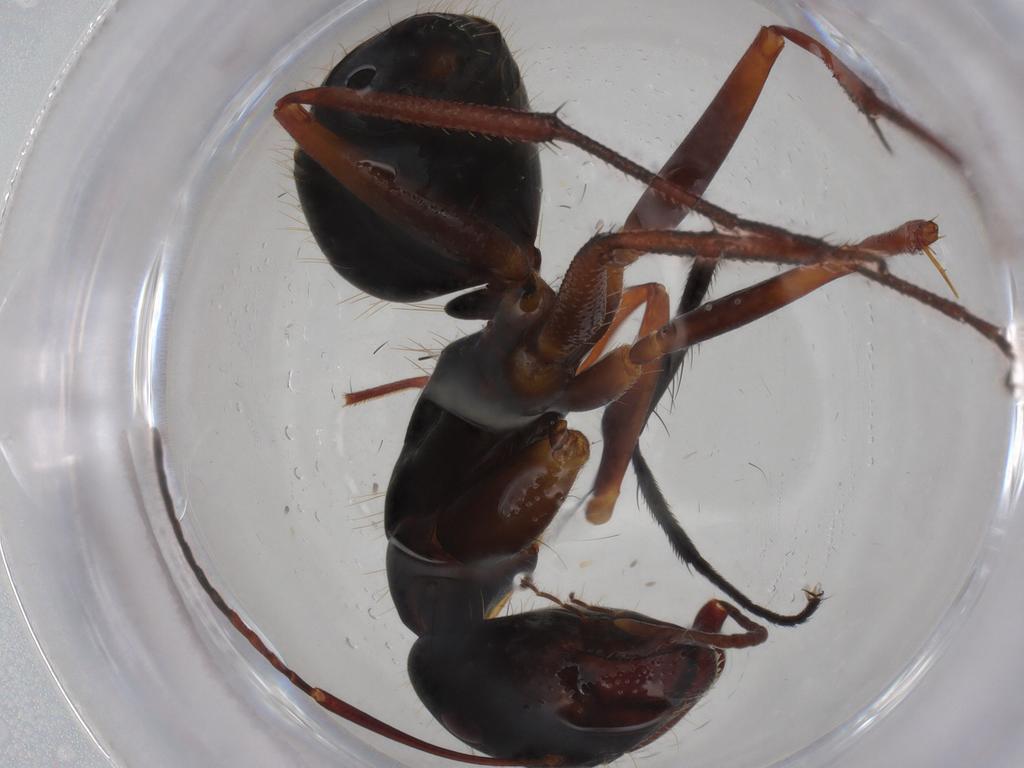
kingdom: Animalia
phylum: Arthropoda
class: Insecta
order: Hymenoptera
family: Formicidae
